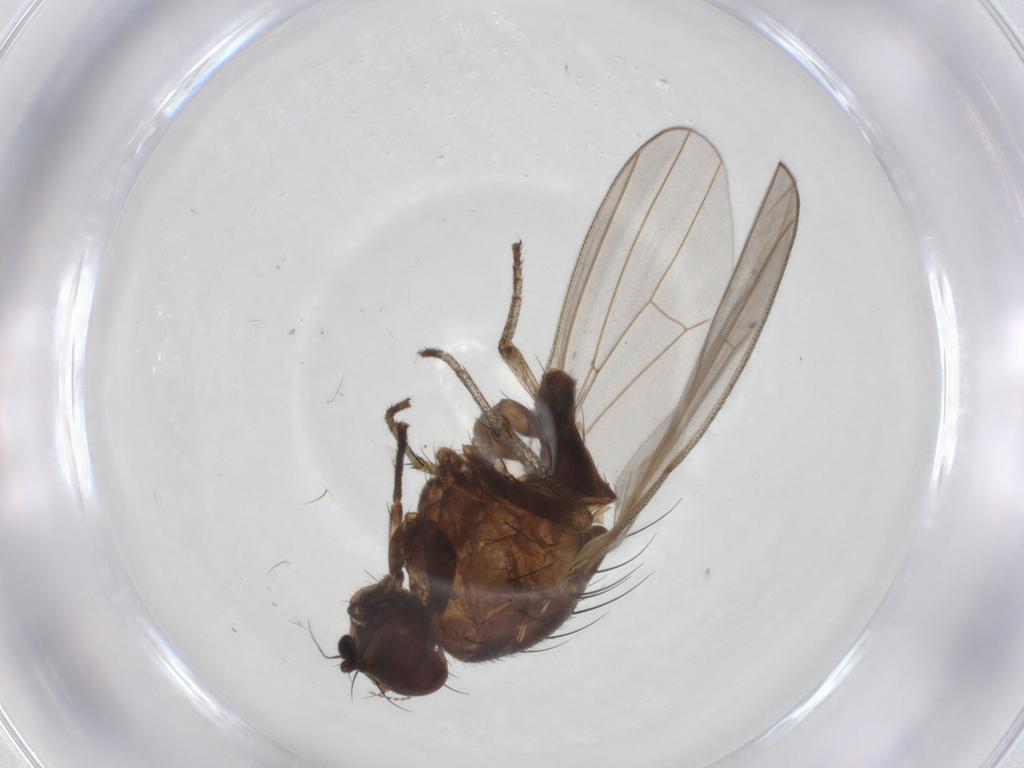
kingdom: Animalia
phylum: Arthropoda
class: Insecta
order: Diptera
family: Lauxaniidae
